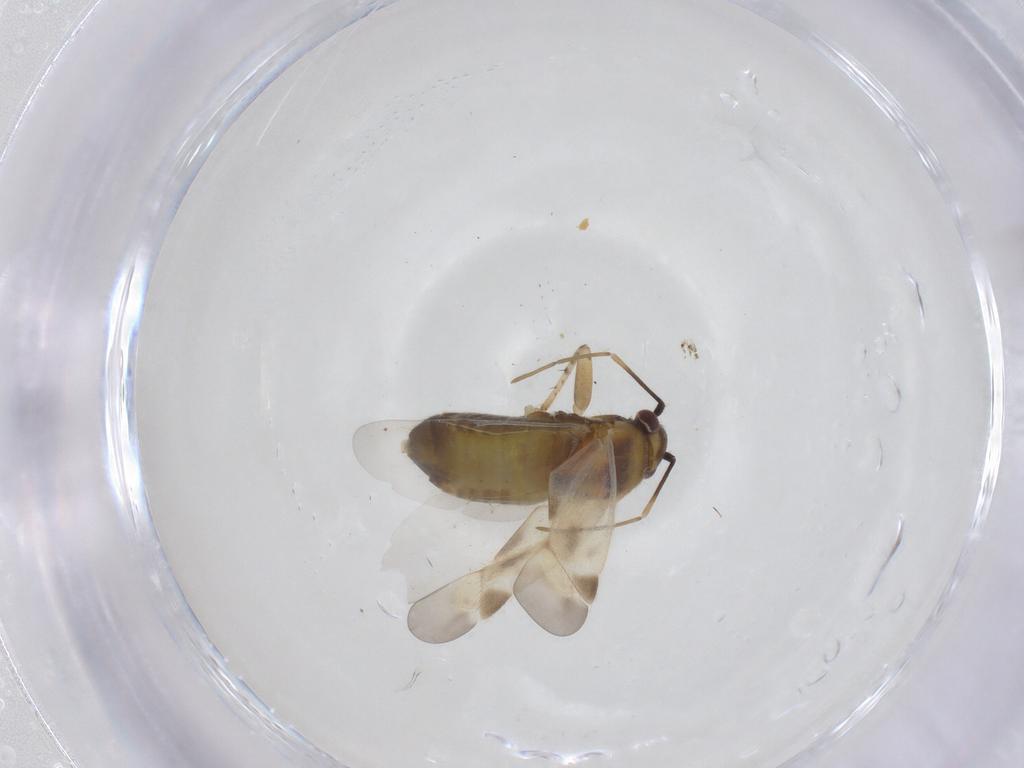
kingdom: Animalia
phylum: Arthropoda
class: Insecta
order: Hemiptera
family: Miridae
